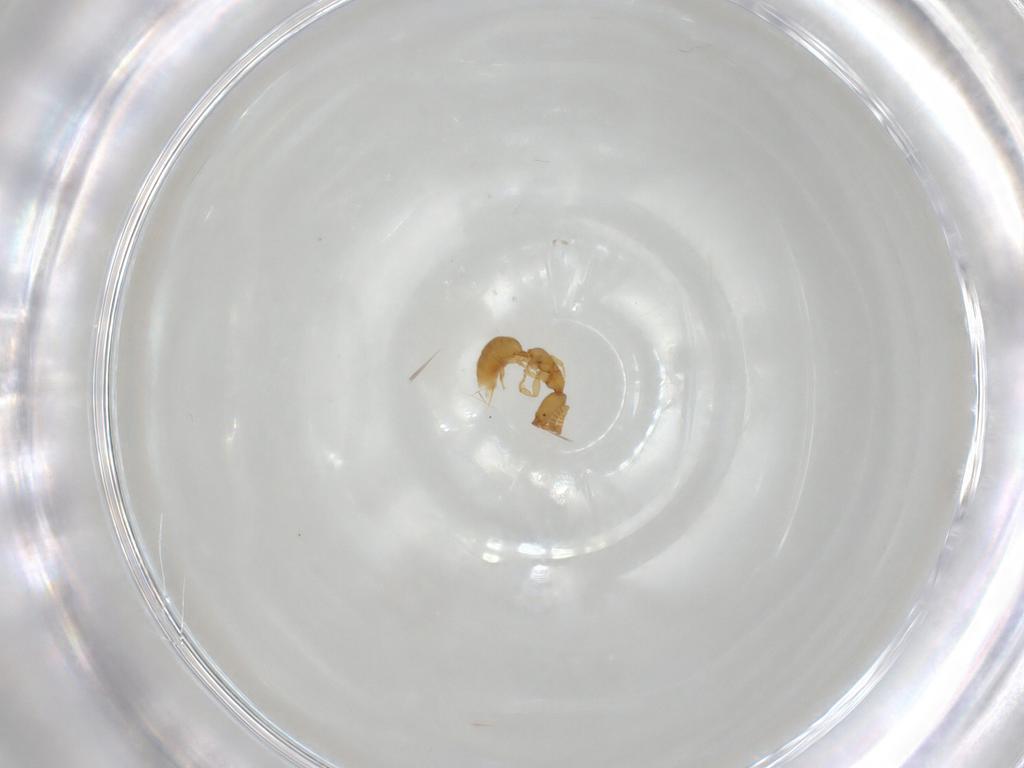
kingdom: Animalia
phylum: Arthropoda
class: Insecta
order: Hymenoptera
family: Bethylidae
